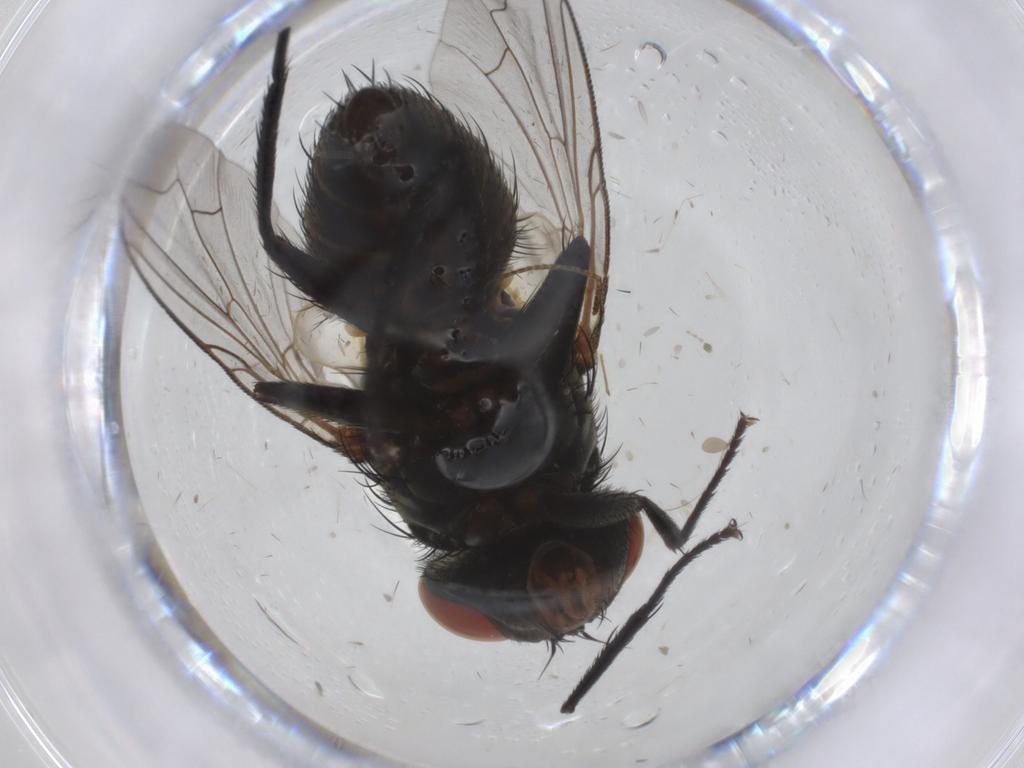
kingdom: Animalia
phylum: Arthropoda
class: Insecta
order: Diptera
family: Sarcophagidae
